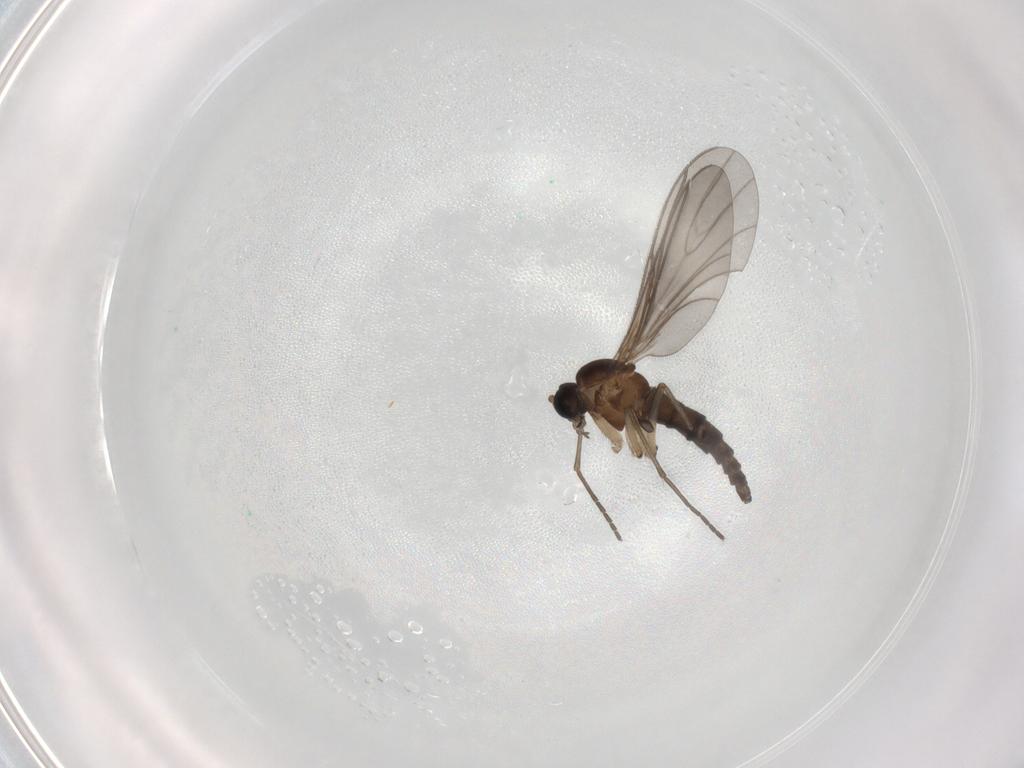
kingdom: Animalia
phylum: Arthropoda
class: Insecta
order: Diptera
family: Sciaridae
